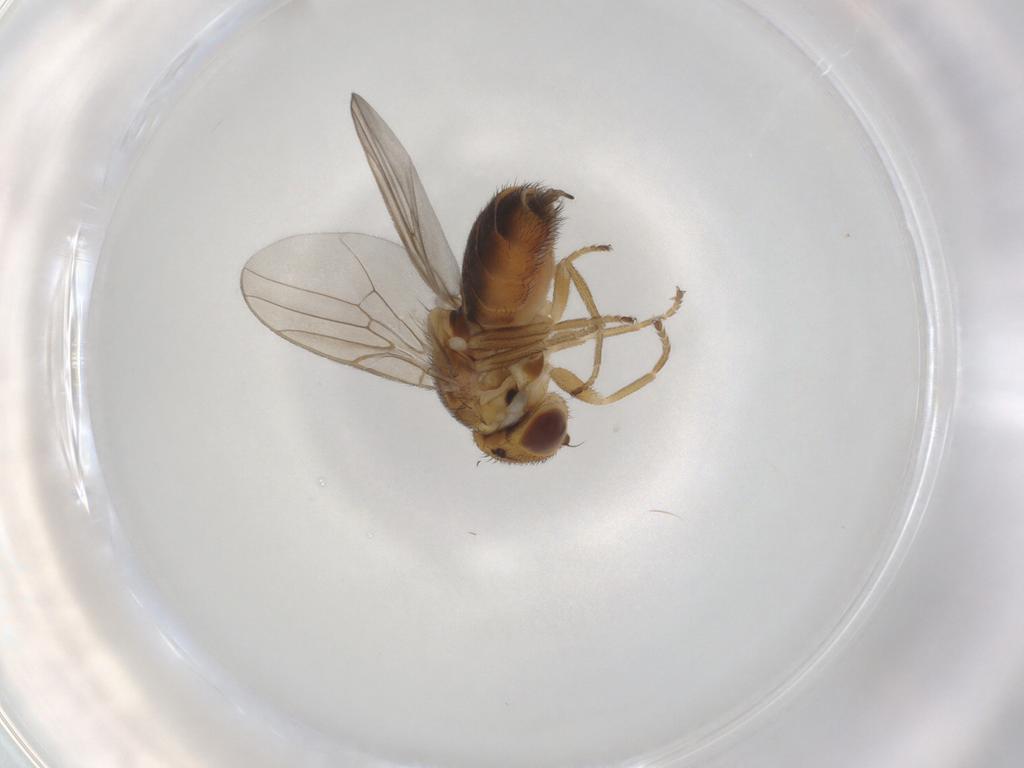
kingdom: Animalia
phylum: Arthropoda
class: Insecta
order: Diptera
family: Chloropidae
